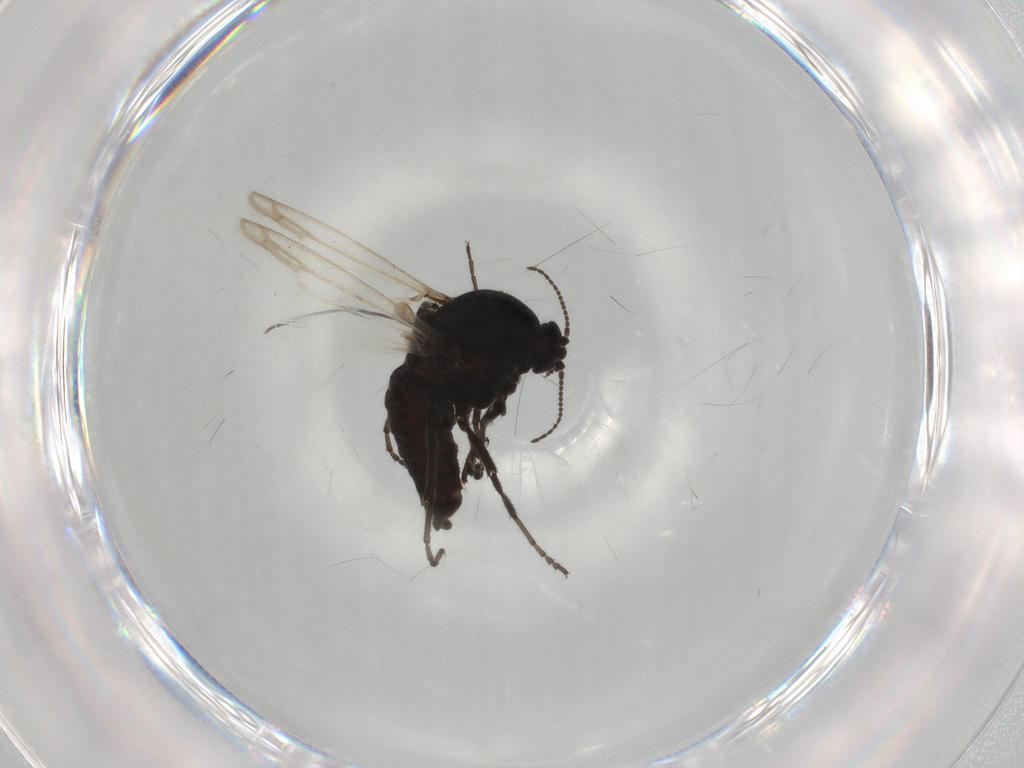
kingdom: Animalia
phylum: Arthropoda
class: Insecta
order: Diptera
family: Ceratopogonidae
